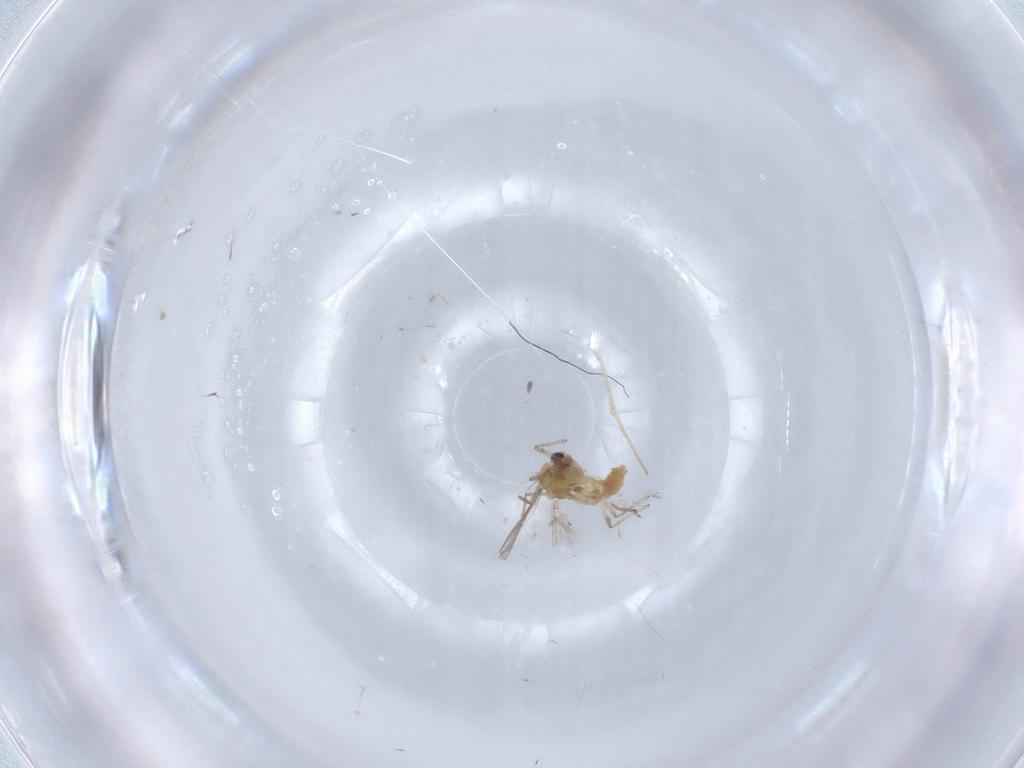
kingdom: Animalia
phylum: Arthropoda
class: Insecta
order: Diptera
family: Chironomidae
